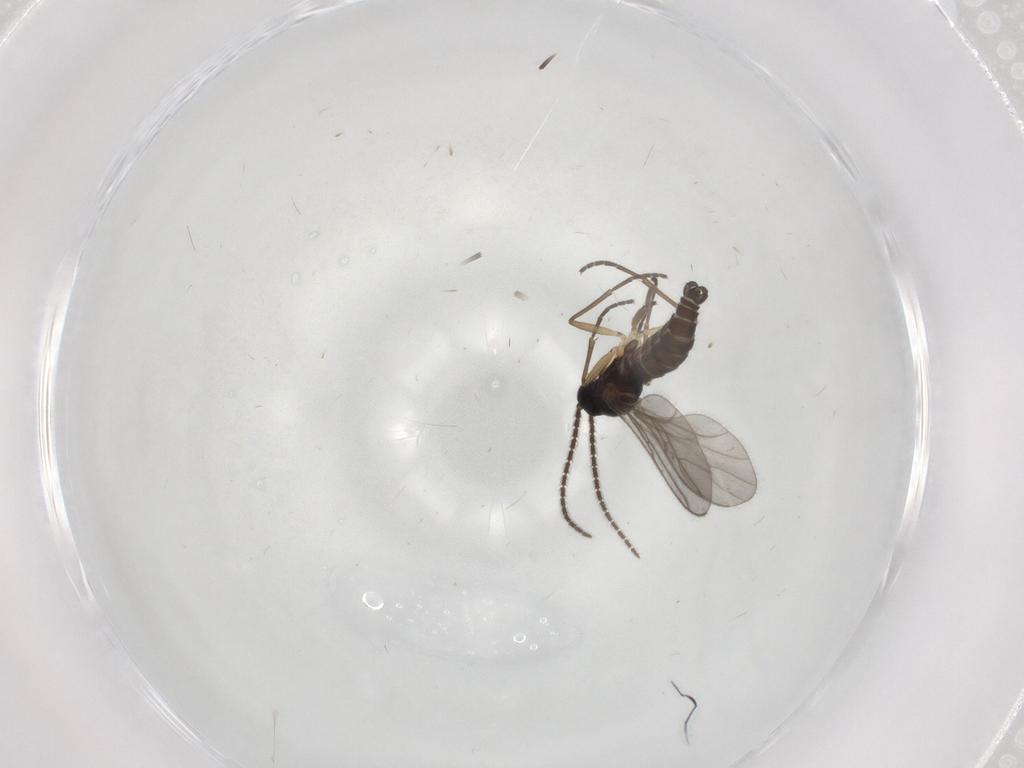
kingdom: Animalia
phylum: Arthropoda
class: Insecta
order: Diptera
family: Sciaridae
